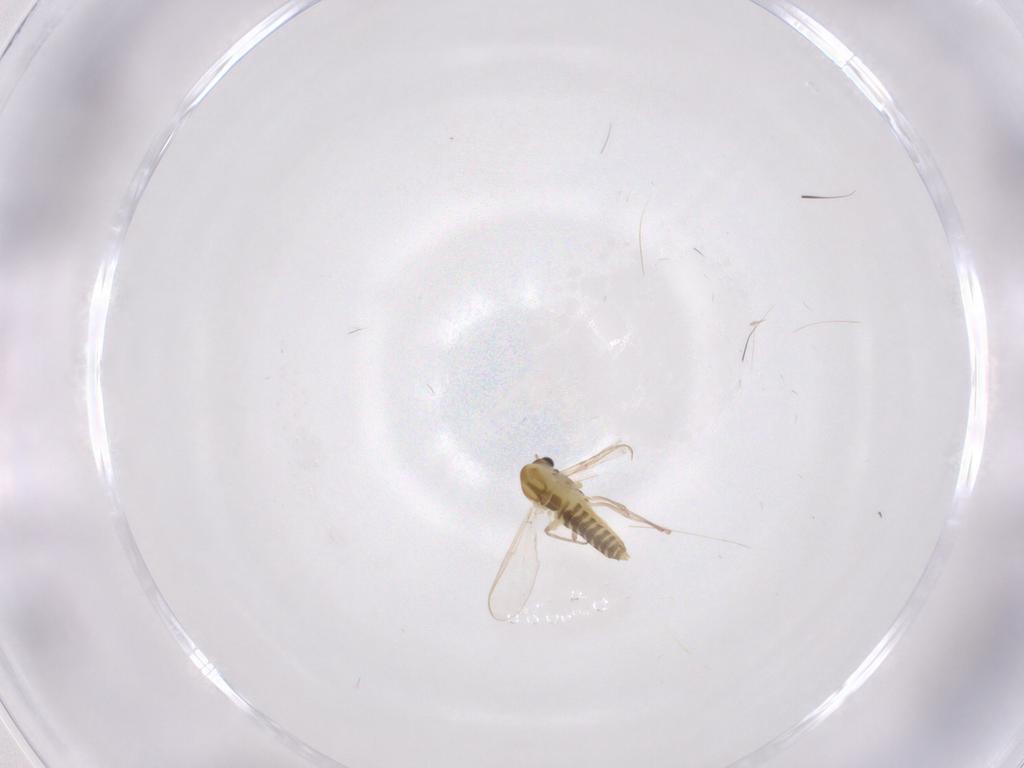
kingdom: Animalia
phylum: Arthropoda
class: Insecta
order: Diptera
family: Chironomidae
